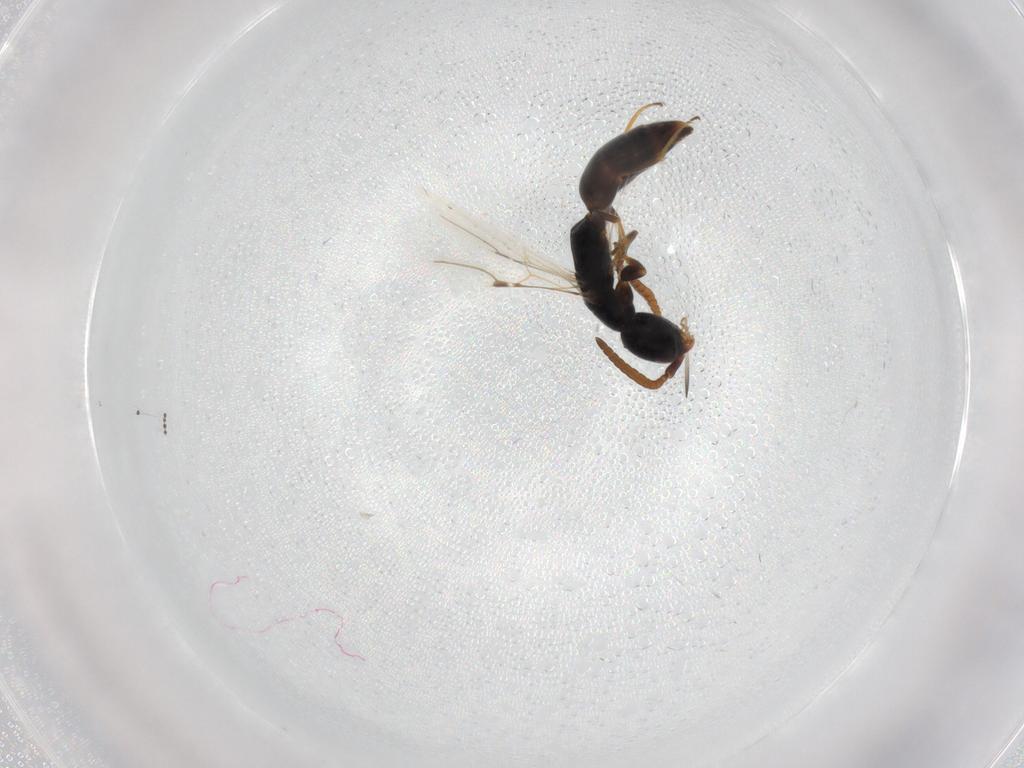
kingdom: Animalia
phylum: Arthropoda
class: Insecta
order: Hymenoptera
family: Bethylidae
